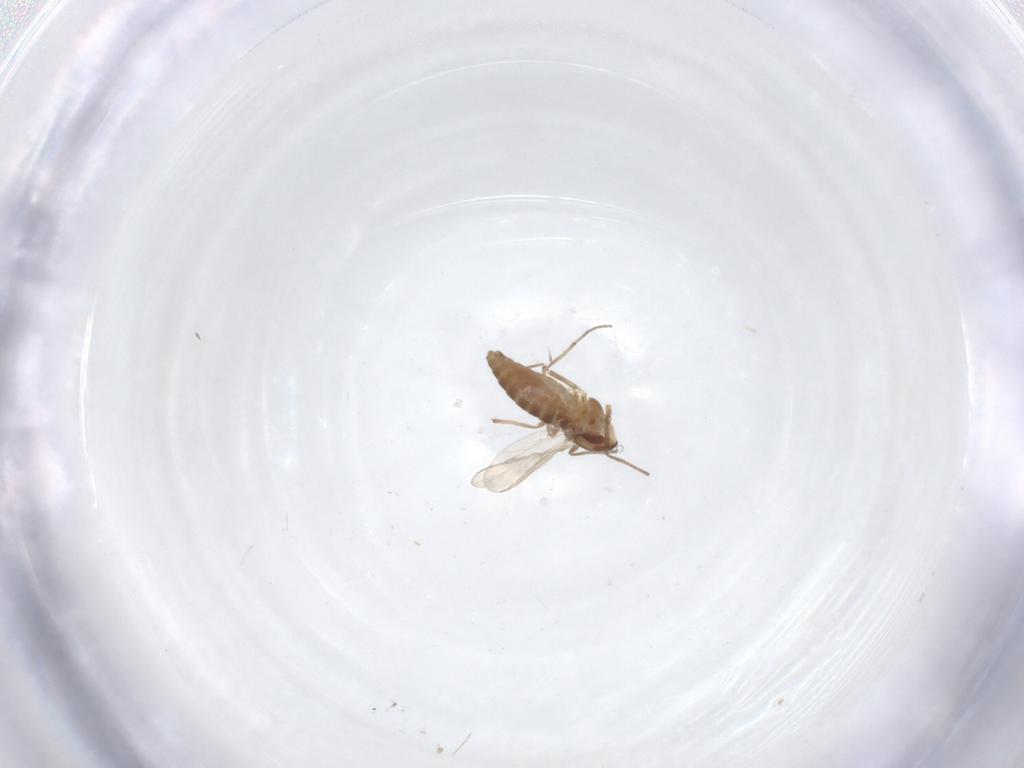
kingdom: Animalia
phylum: Arthropoda
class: Insecta
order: Diptera
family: Chironomidae
